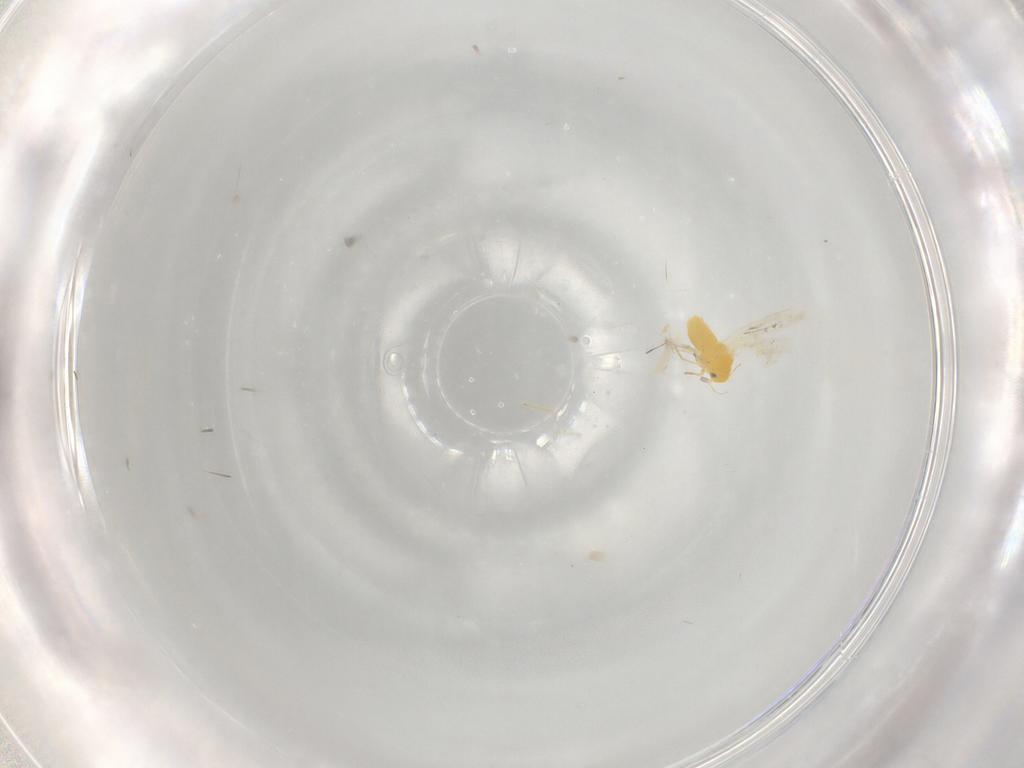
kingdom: Animalia
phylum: Arthropoda
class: Insecta
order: Hemiptera
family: Aleyrodidae
